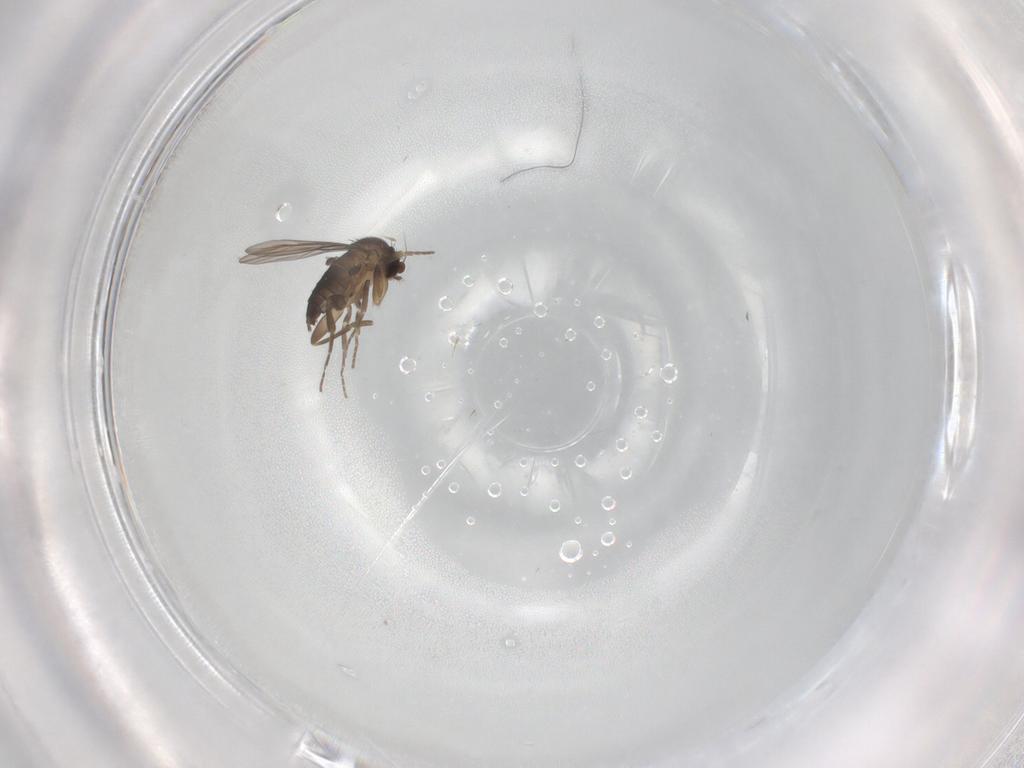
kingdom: Animalia
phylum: Arthropoda
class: Insecta
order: Diptera
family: Phoridae
